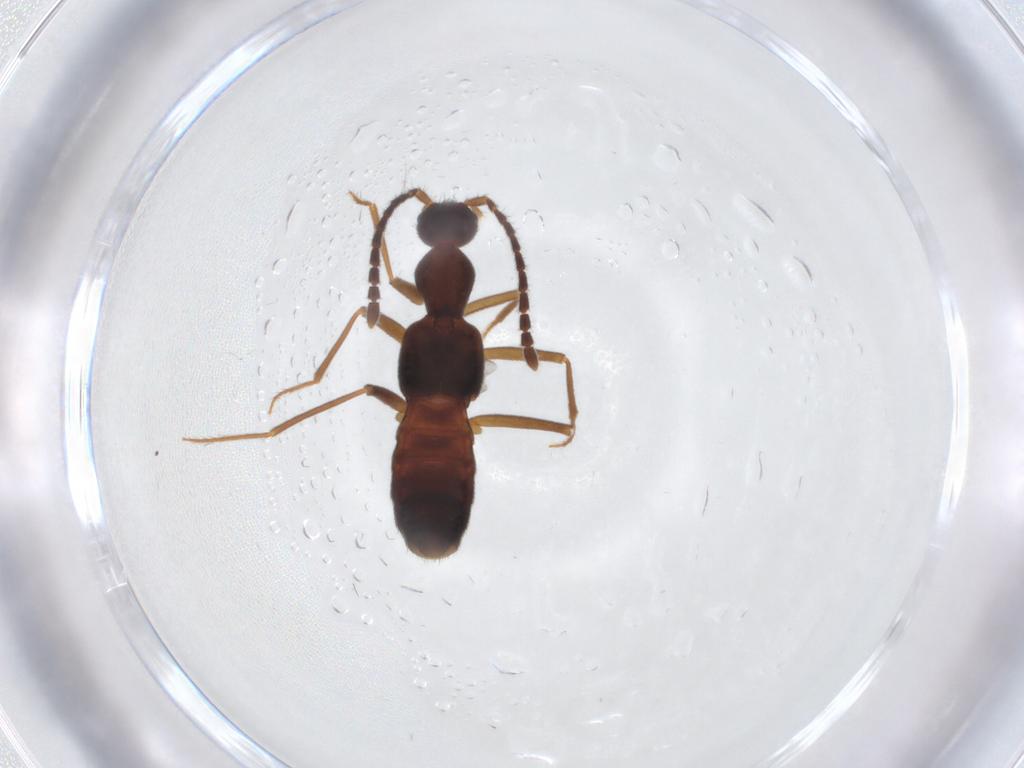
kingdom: Animalia
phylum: Arthropoda
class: Insecta
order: Coleoptera
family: Staphylinidae
